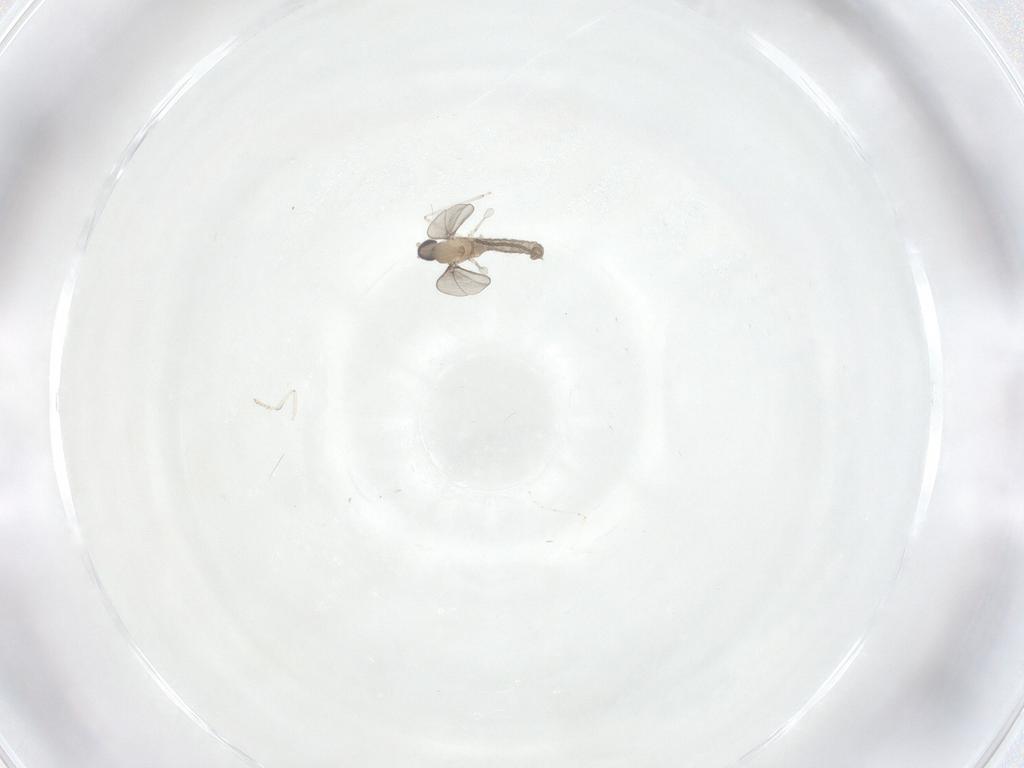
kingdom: Animalia
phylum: Arthropoda
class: Insecta
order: Diptera
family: Cecidomyiidae
